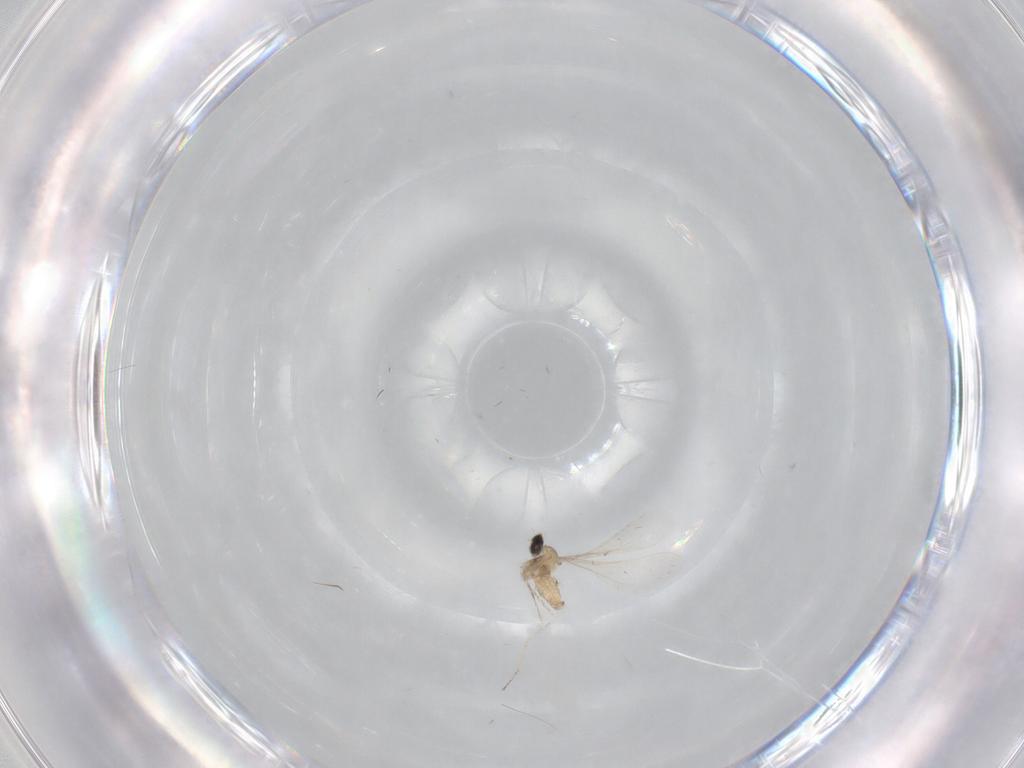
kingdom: Animalia
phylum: Arthropoda
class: Insecta
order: Diptera
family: Cecidomyiidae
